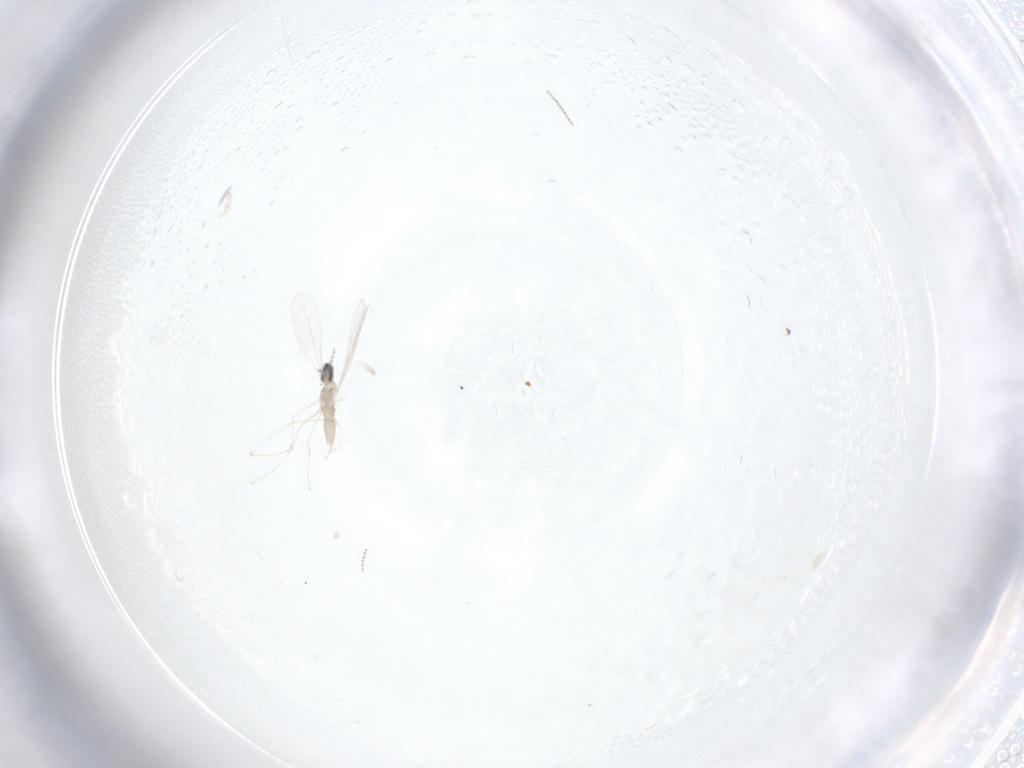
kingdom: Animalia
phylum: Arthropoda
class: Insecta
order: Diptera
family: Cecidomyiidae
